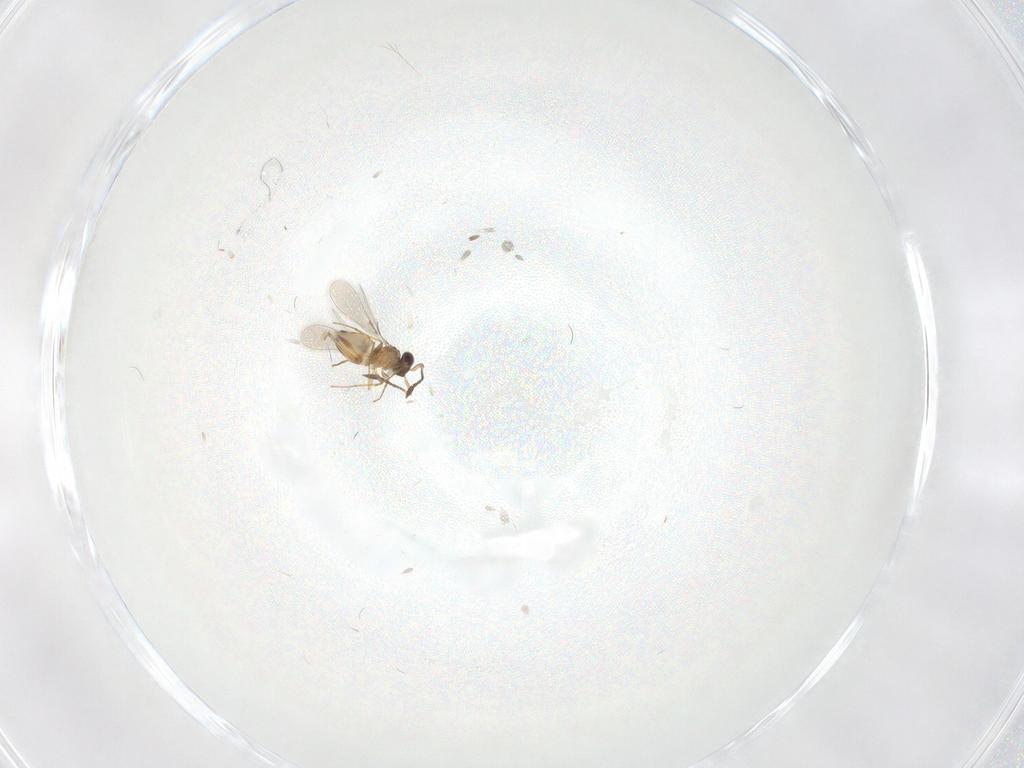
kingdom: Animalia
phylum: Arthropoda
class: Insecta
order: Hymenoptera
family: Mymaridae
